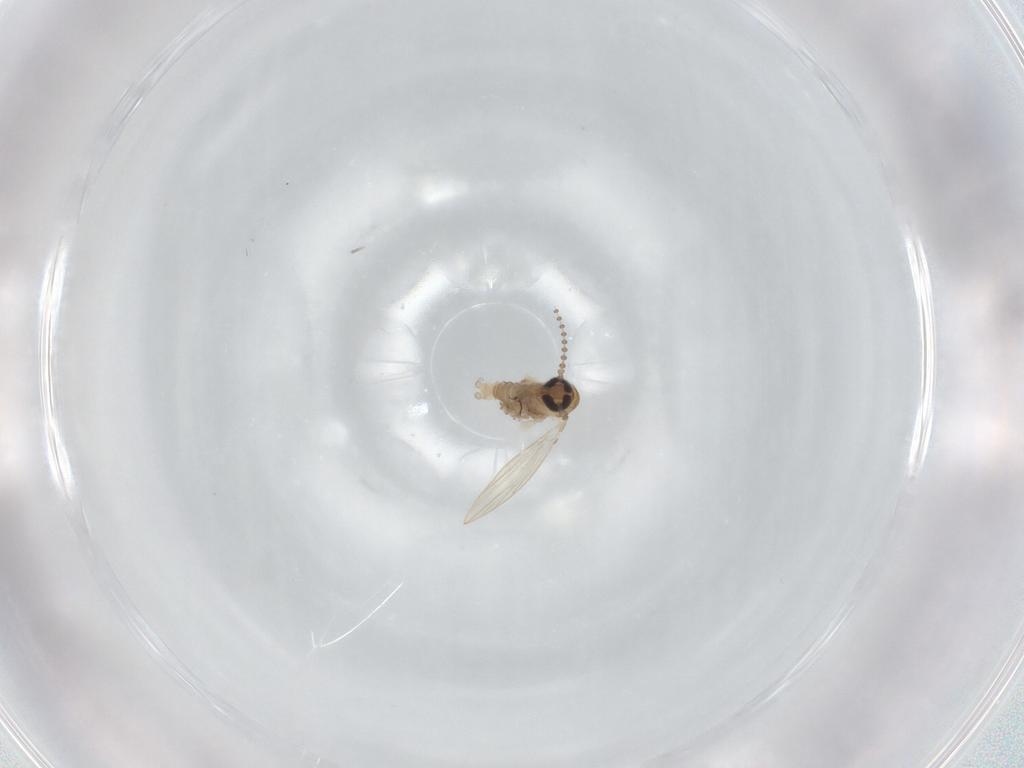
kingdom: Animalia
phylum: Arthropoda
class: Insecta
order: Diptera
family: Psychodidae
